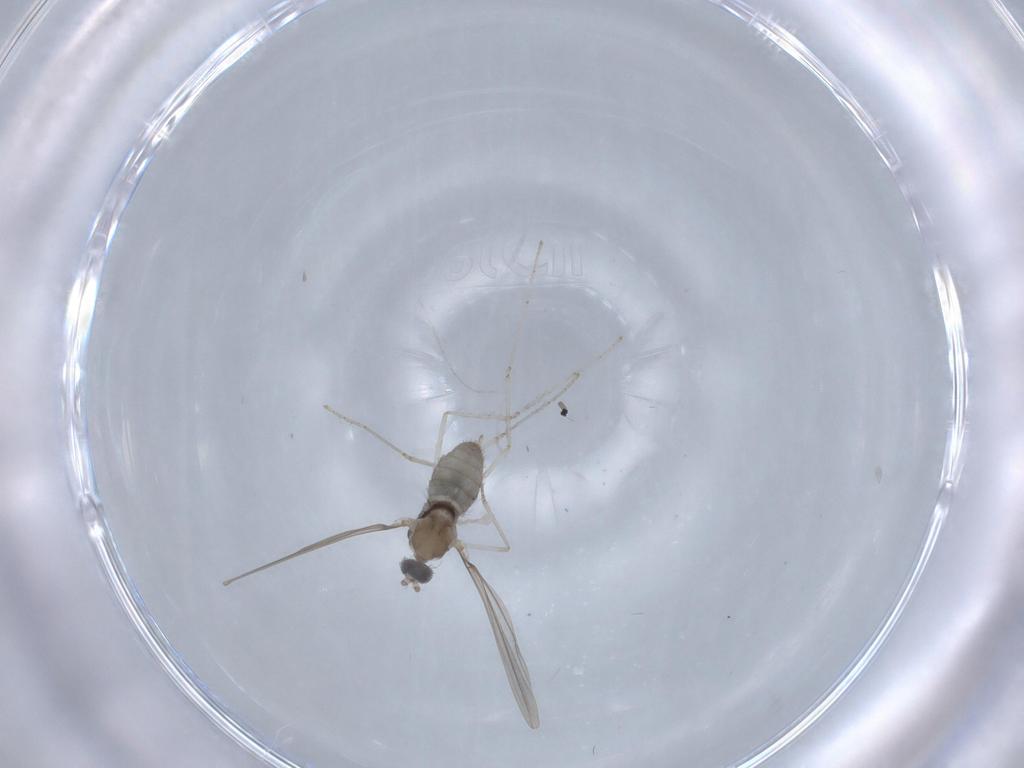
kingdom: Animalia
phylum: Arthropoda
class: Insecta
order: Diptera
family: Cecidomyiidae
